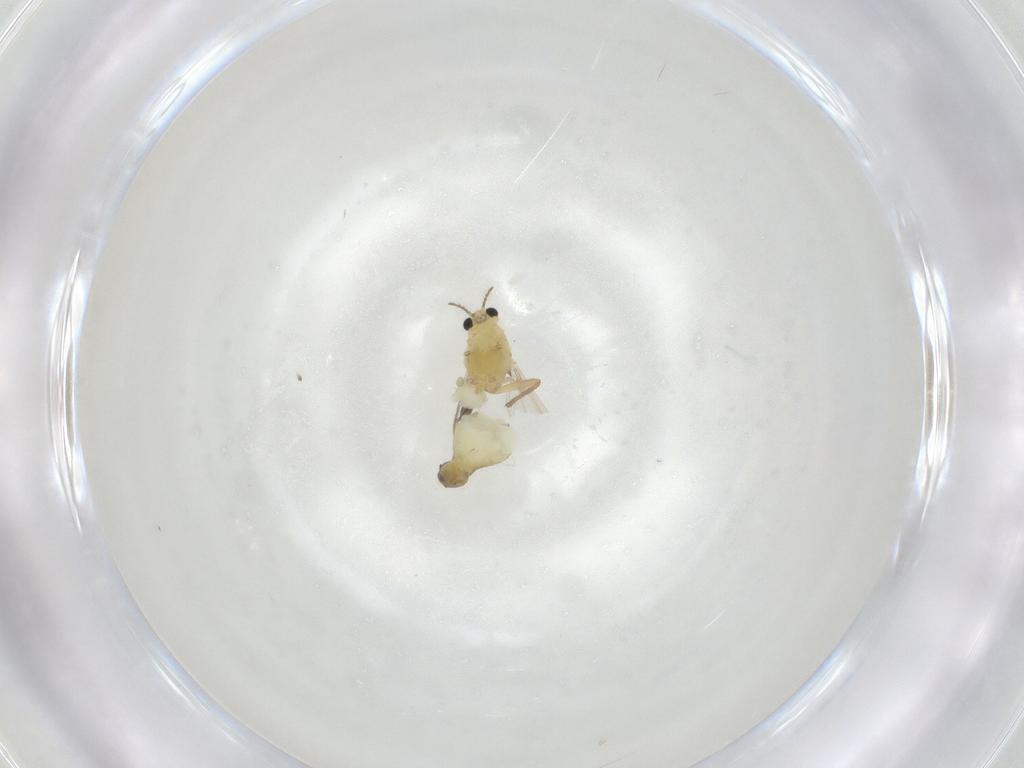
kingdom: Animalia
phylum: Arthropoda
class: Insecta
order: Diptera
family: Chironomidae
